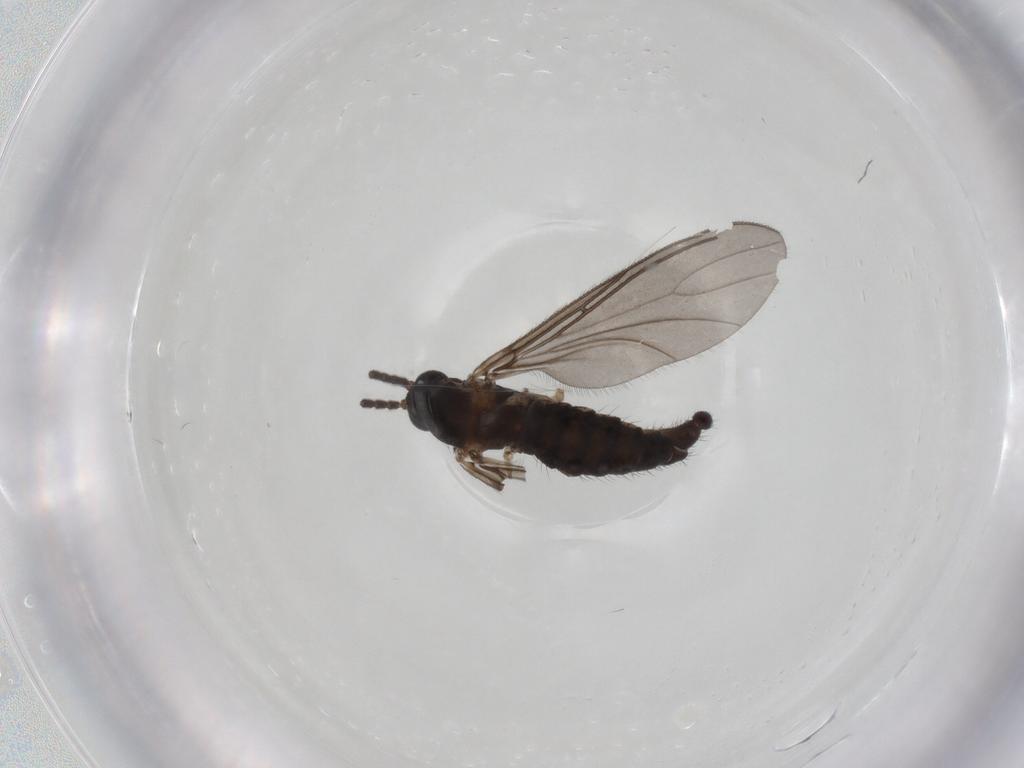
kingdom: Animalia
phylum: Arthropoda
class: Insecta
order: Diptera
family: Sciaridae
